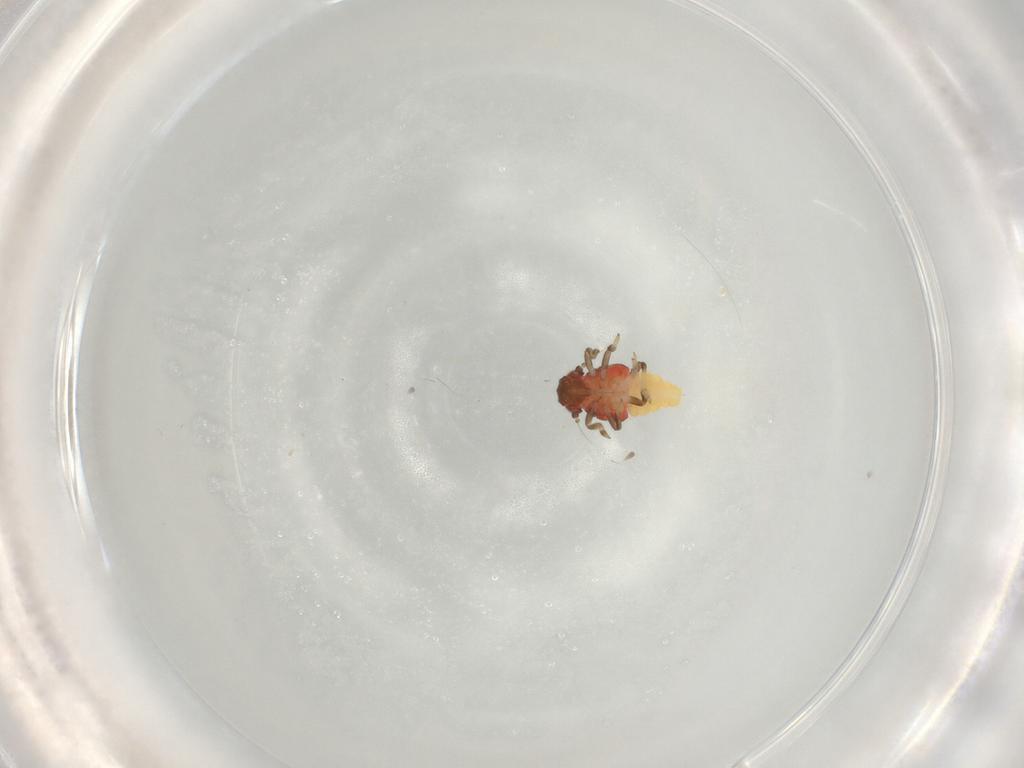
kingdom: Animalia
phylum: Arthropoda
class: Insecta
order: Hemiptera
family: Nogodinidae
